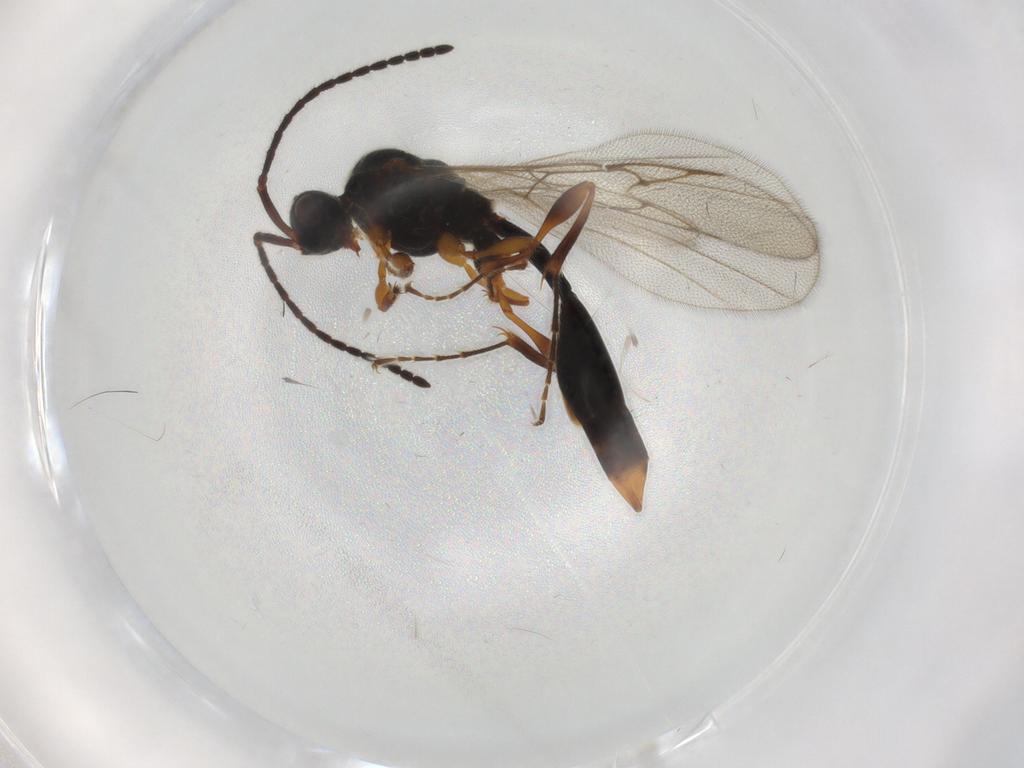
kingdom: Animalia
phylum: Arthropoda
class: Insecta
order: Hymenoptera
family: Diapriidae
